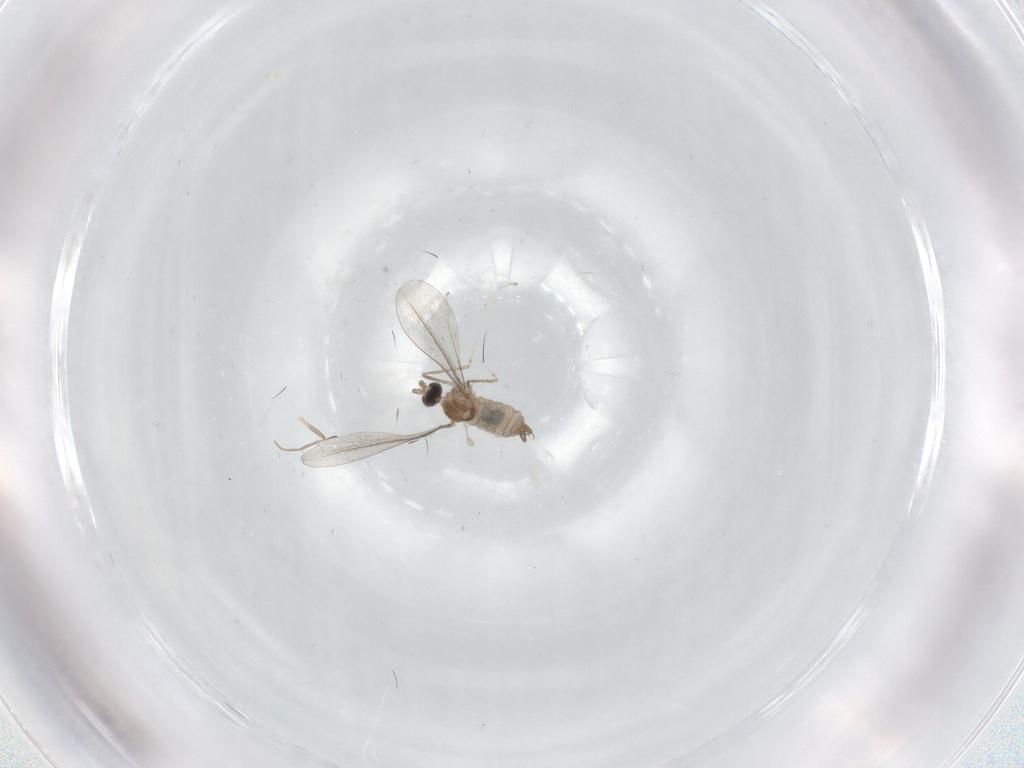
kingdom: Animalia
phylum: Arthropoda
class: Insecta
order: Diptera
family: Cecidomyiidae
